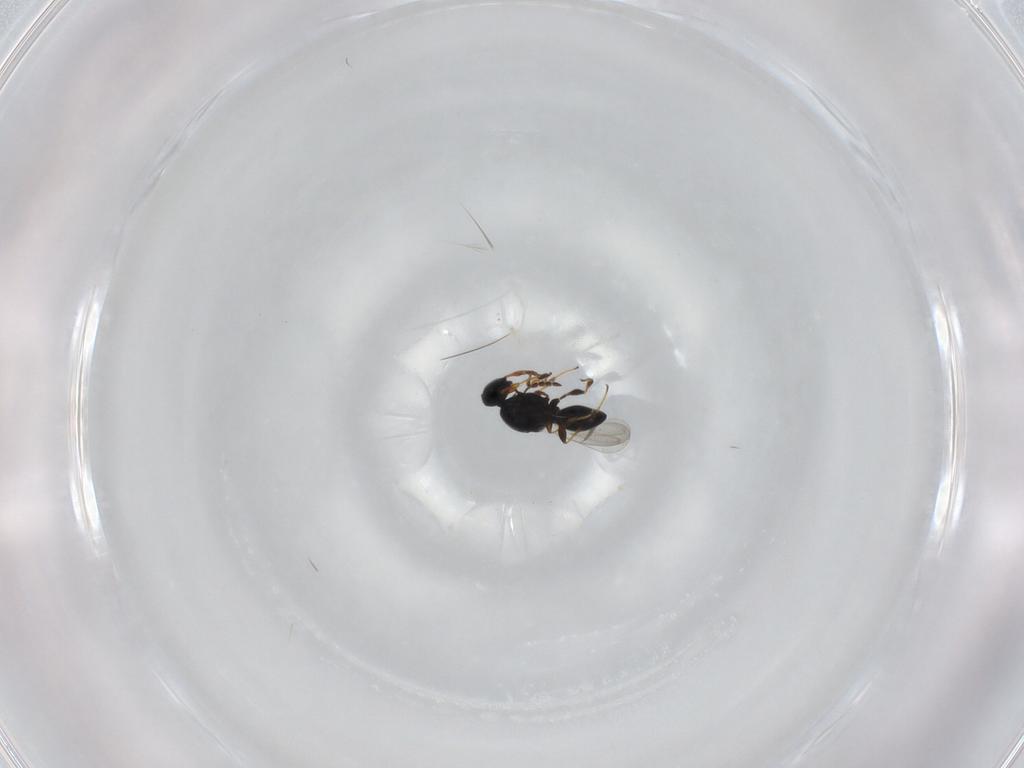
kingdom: Animalia
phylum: Arthropoda
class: Insecta
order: Hymenoptera
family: Platygastridae
